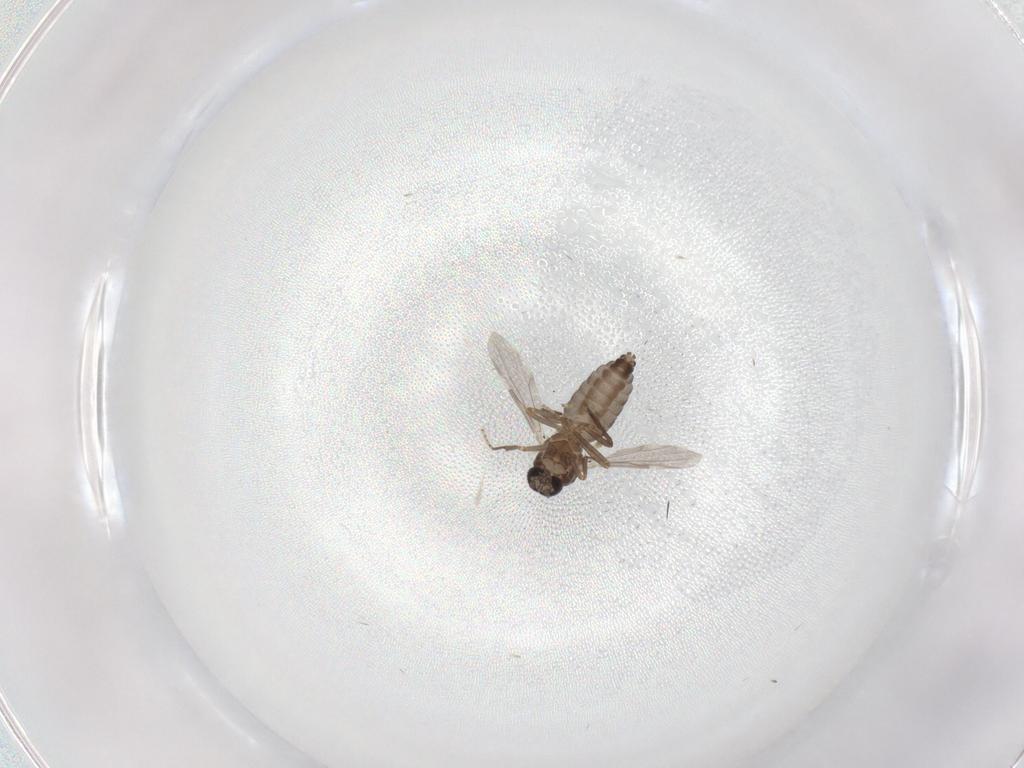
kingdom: Animalia
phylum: Arthropoda
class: Insecta
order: Diptera
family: Ceratopogonidae
